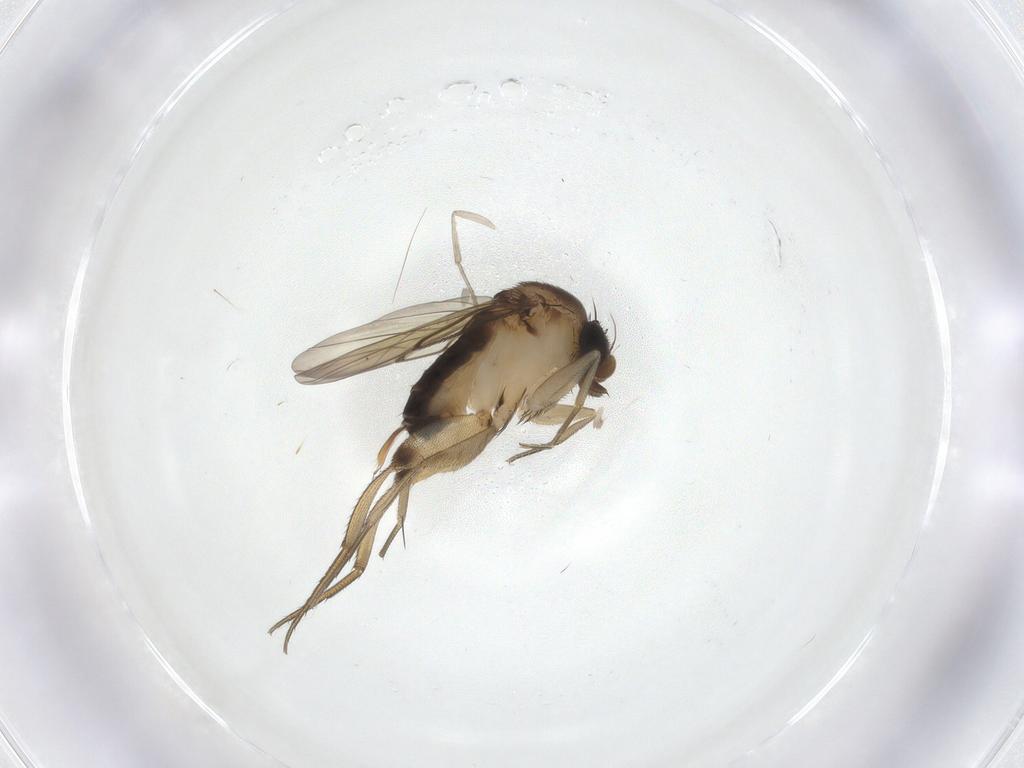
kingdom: Animalia
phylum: Arthropoda
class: Insecta
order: Diptera
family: Phoridae
